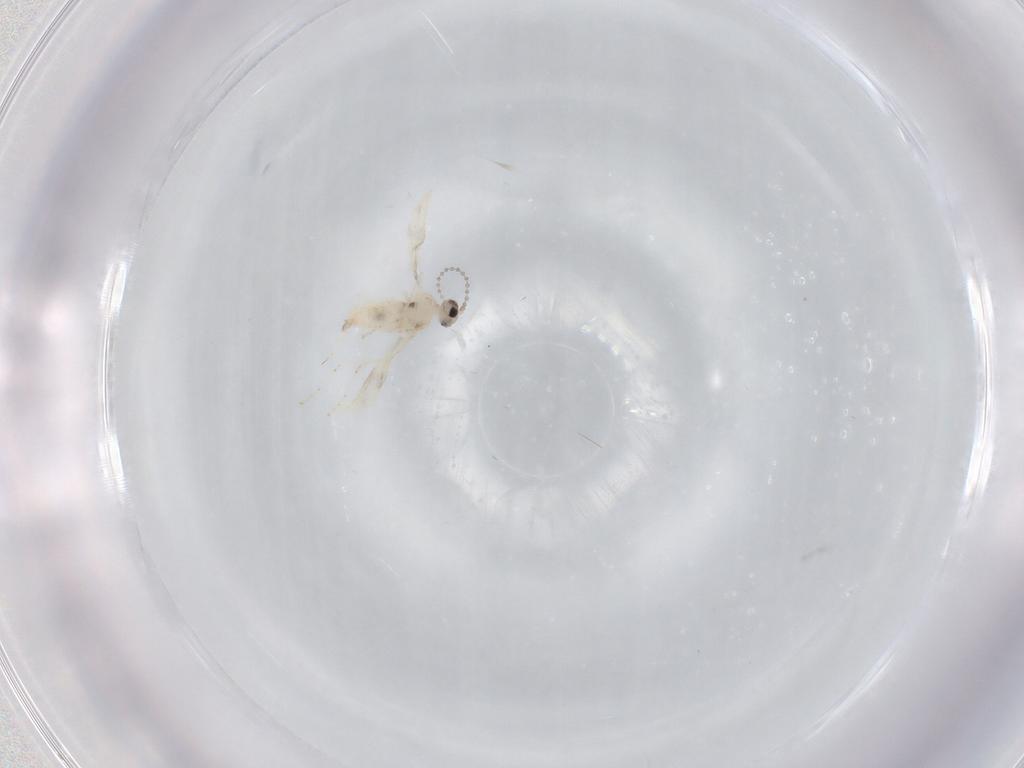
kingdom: Animalia
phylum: Arthropoda
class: Insecta
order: Diptera
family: Cecidomyiidae
